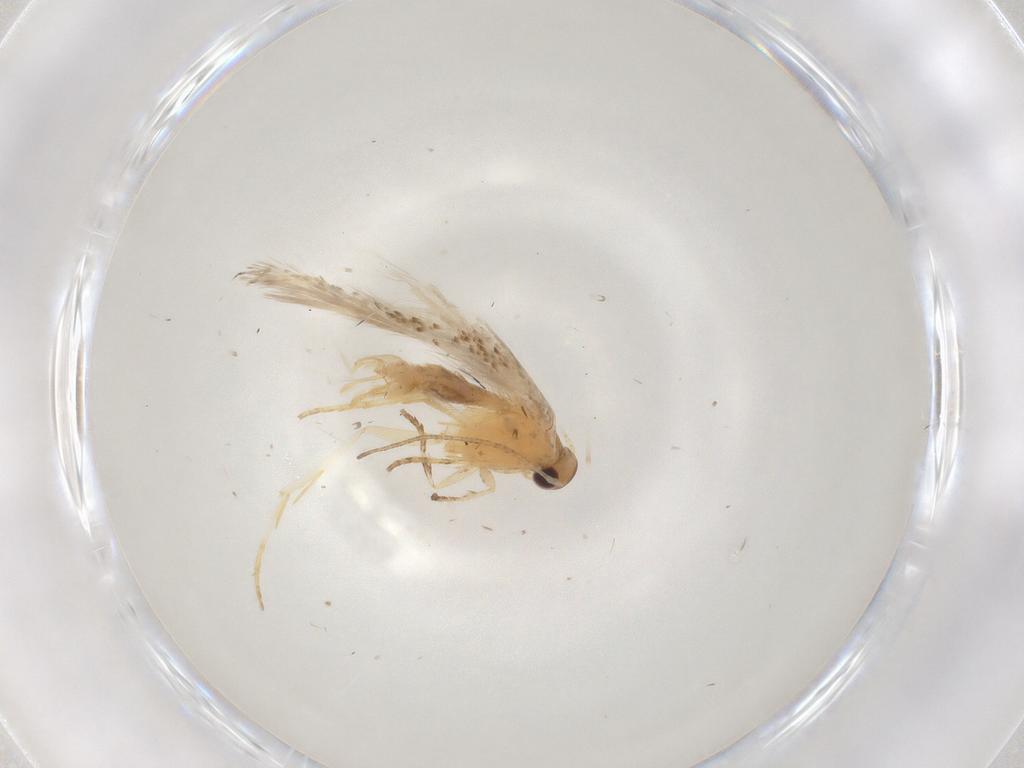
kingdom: Animalia
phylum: Arthropoda
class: Insecta
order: Lepidoptera
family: Gelechiidae
